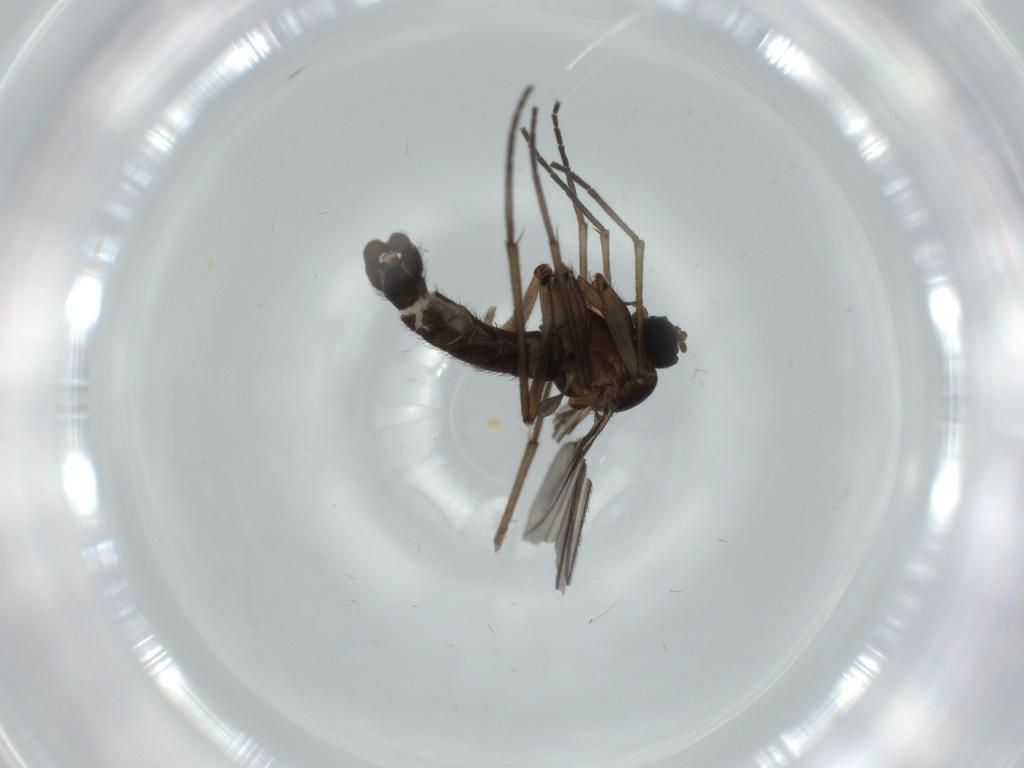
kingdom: Animalia
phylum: Arthropoda
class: Insecta
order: Diptera
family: Sciaridae
